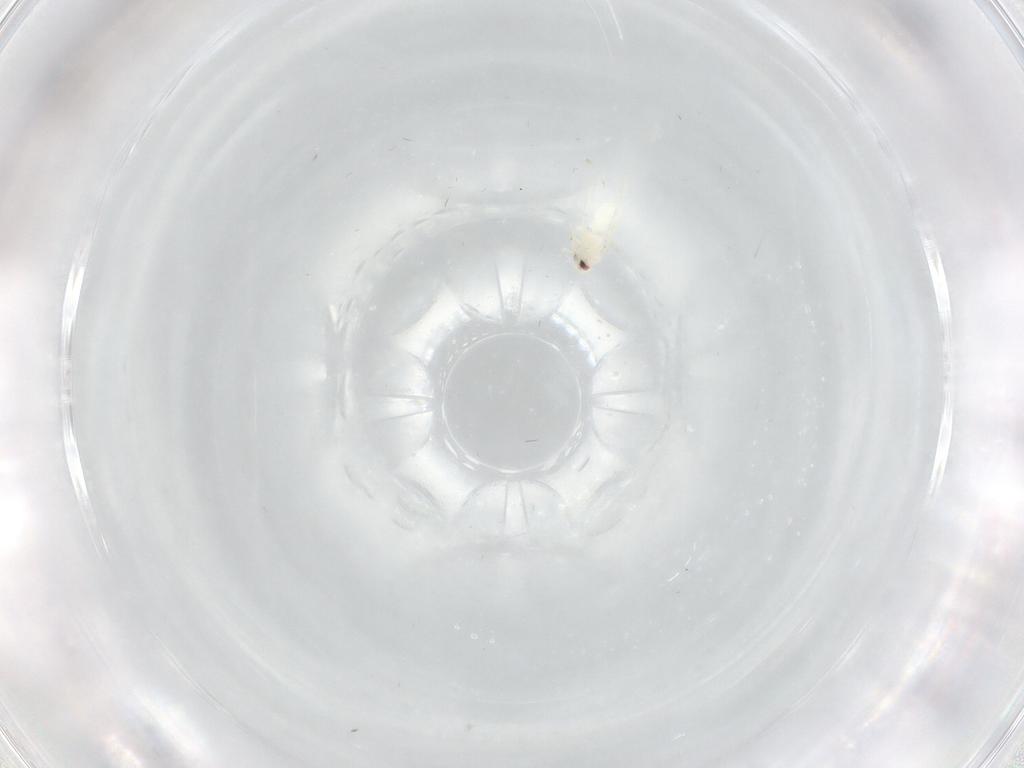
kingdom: Animalia
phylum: Arthropoda
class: Insecta
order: Hemiptera
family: Aleyrodidae
